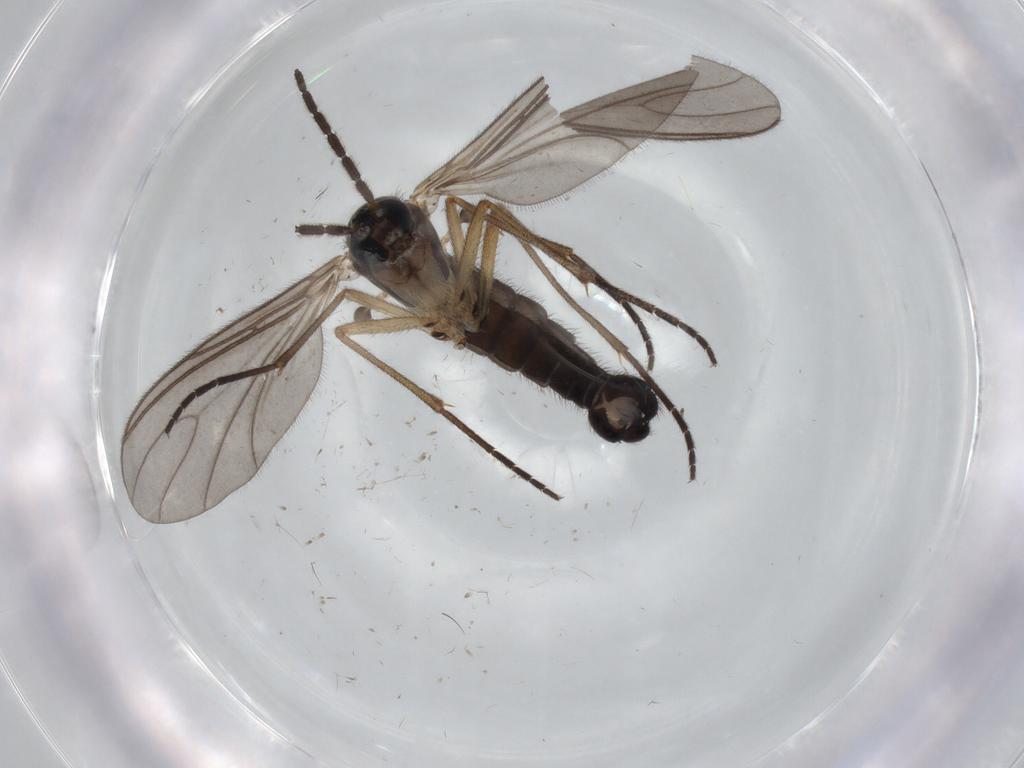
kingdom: Animalia
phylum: Arthropoda
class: Insecta
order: Diptera
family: Sciaridae
